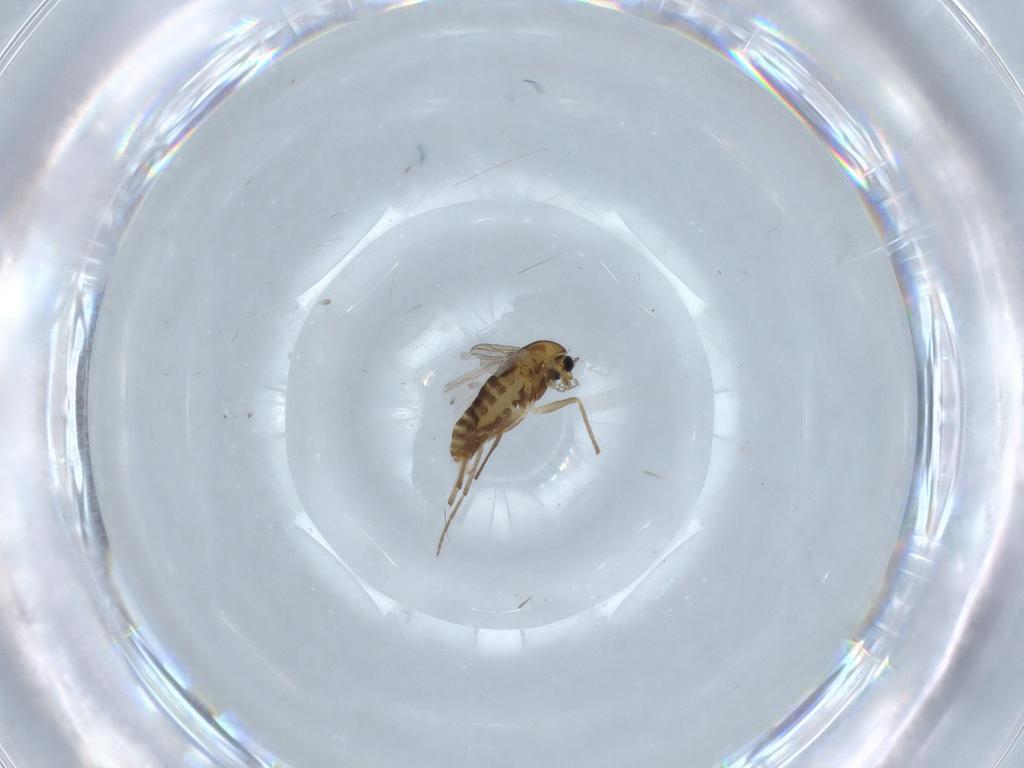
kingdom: Animalia
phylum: Arthropoda
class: Insecta
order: Diptera
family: Chironomidae
